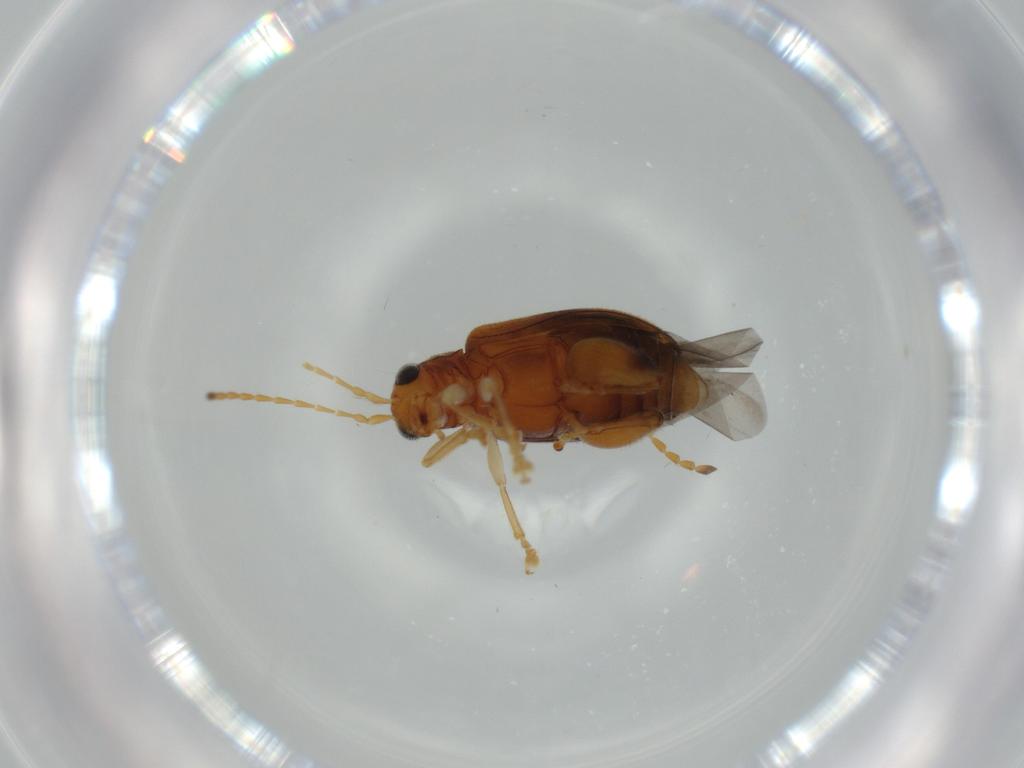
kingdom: Animalia
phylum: Arthropoda
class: Insecta
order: Coleoptera
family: Chrysomelidae
